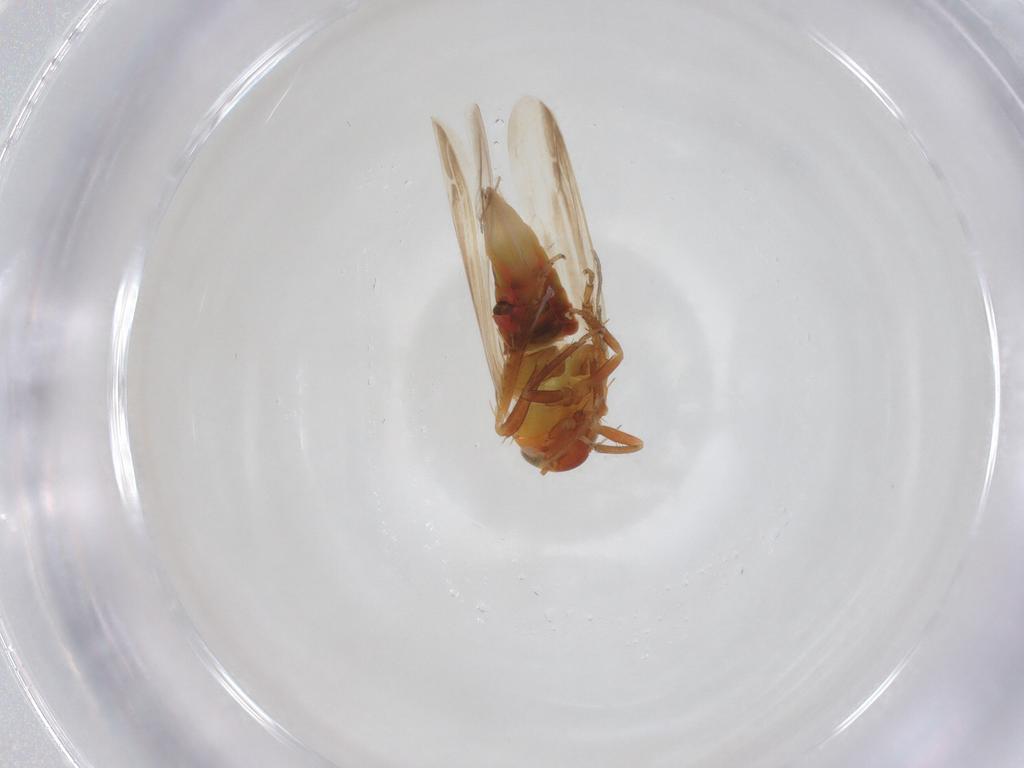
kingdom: Animalia
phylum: Arthropoda
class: Insecta
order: Hemiptera
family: Cicadellidae
